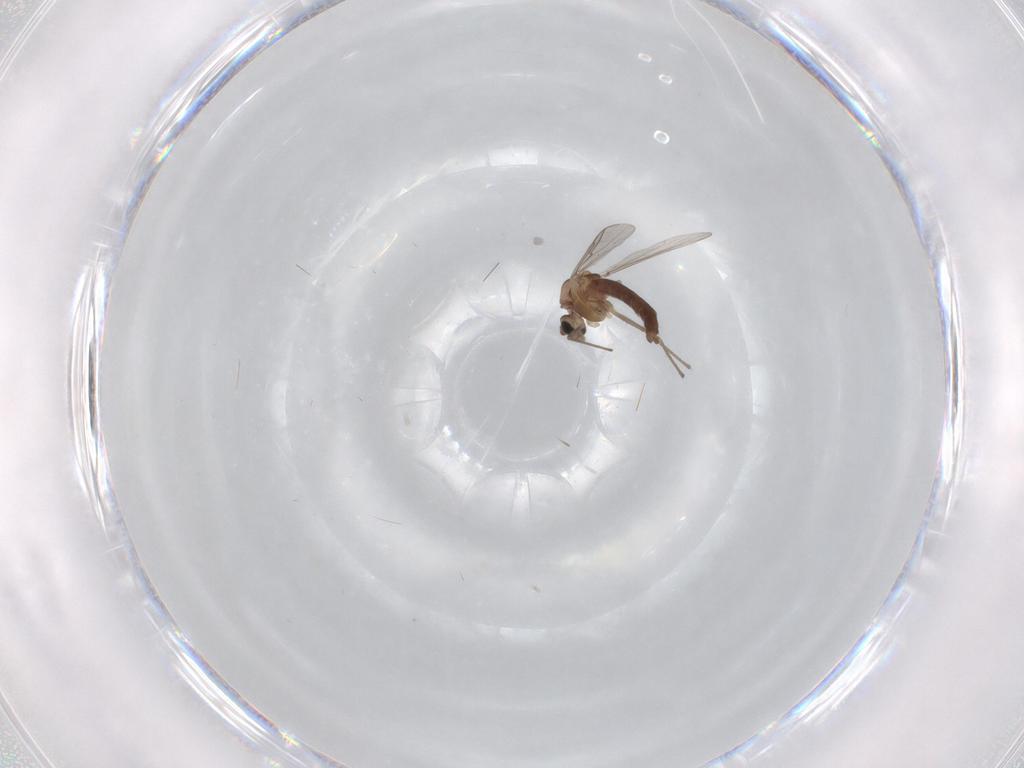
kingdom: Animalia
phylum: Arthropoda
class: Insecta
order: Diptera
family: Chironomidae
